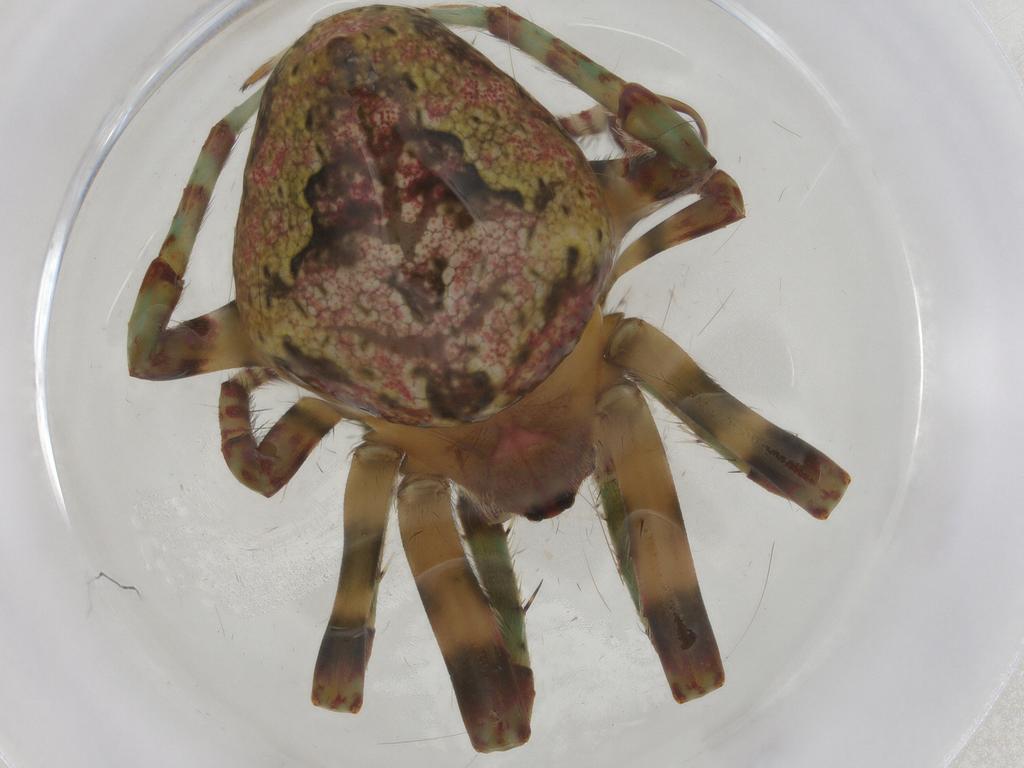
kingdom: Animalia
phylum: Arthropoda
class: Arachnida
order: Araneae
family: Araneidae
